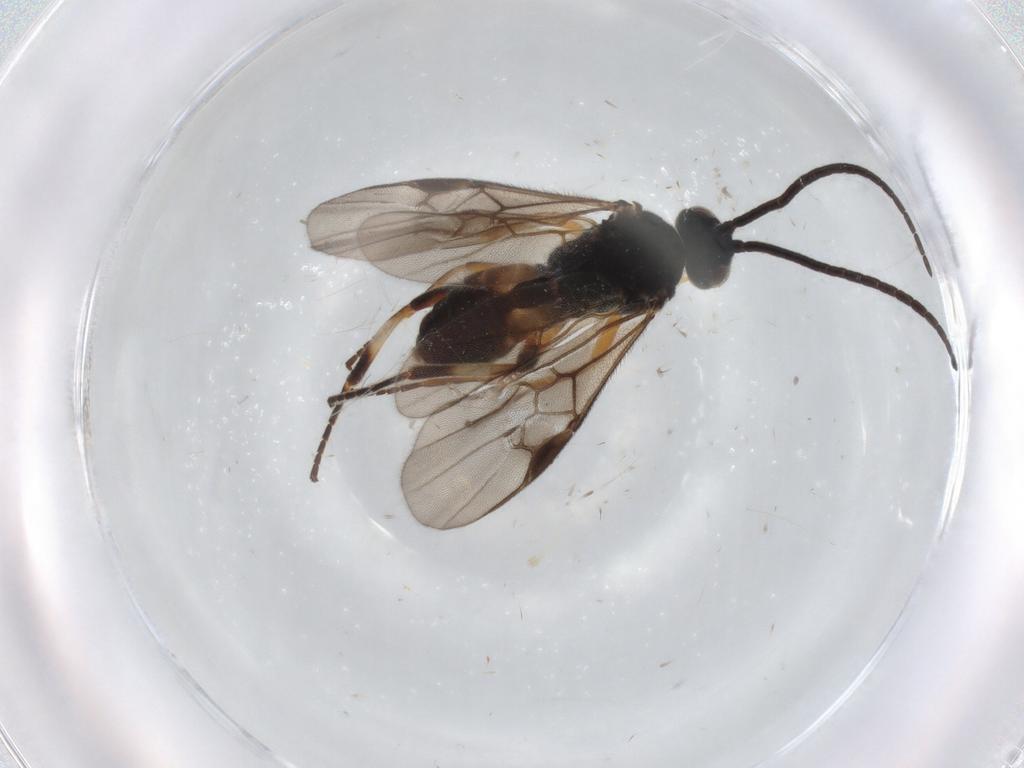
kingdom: Animalia
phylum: Arthropoda
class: Insecta
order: Hymenoptera
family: Braconidae
